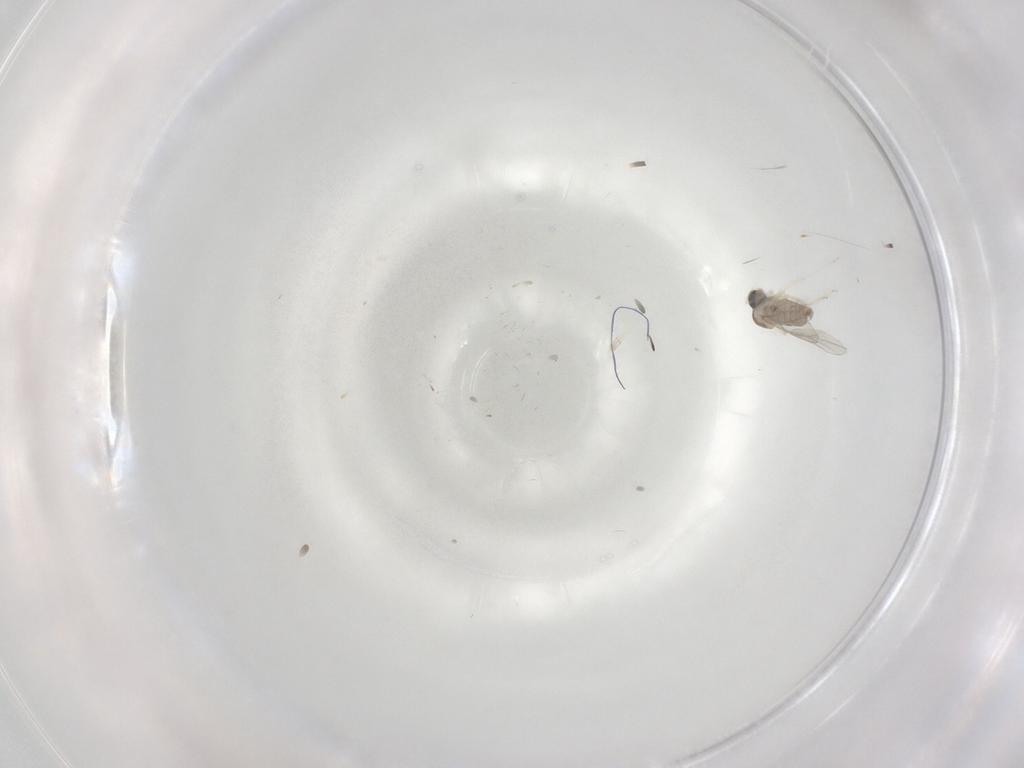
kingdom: Animalia
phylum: Arthropoda
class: Insecta
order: Diptera
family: Cecidomyiidae
